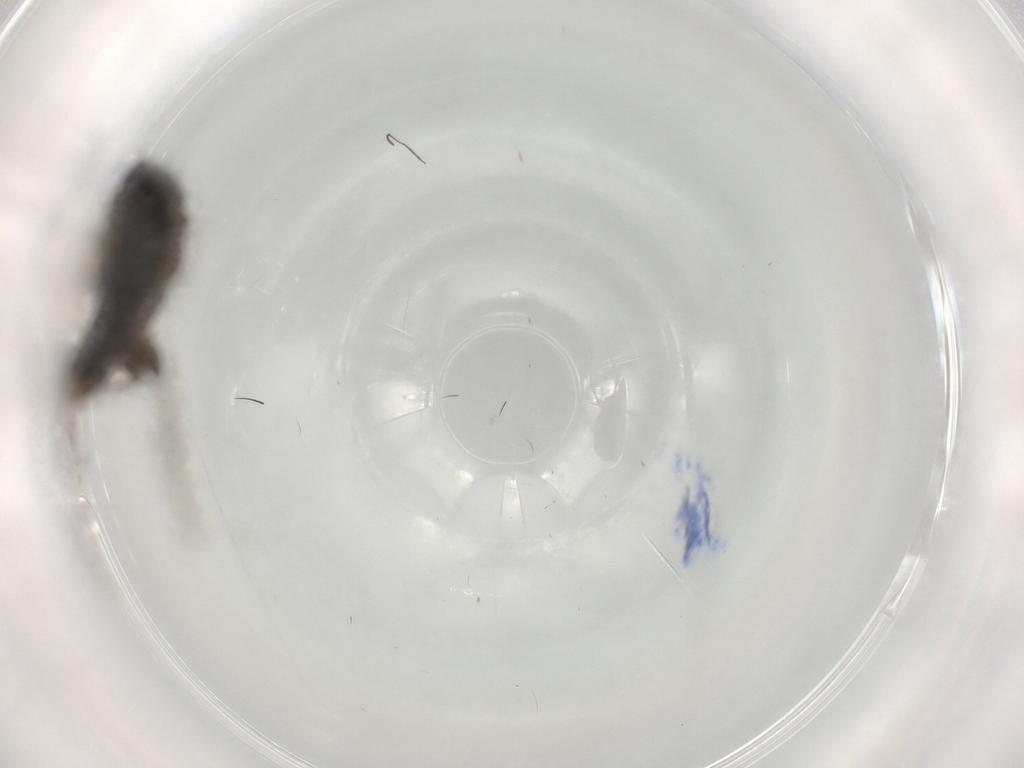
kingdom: Animalia
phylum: Arthropoda
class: Insecta
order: Diptera
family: Phoridae
